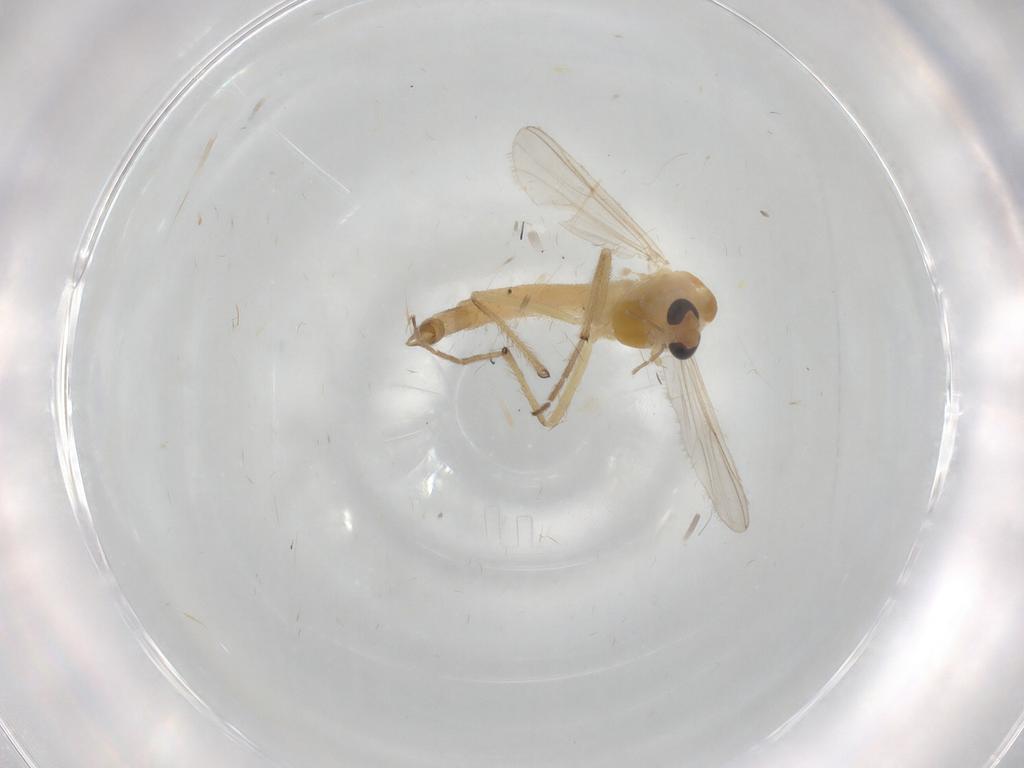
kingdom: Animalia
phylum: Arthropoda
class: Insecta
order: Diptera
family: Chironomidae
